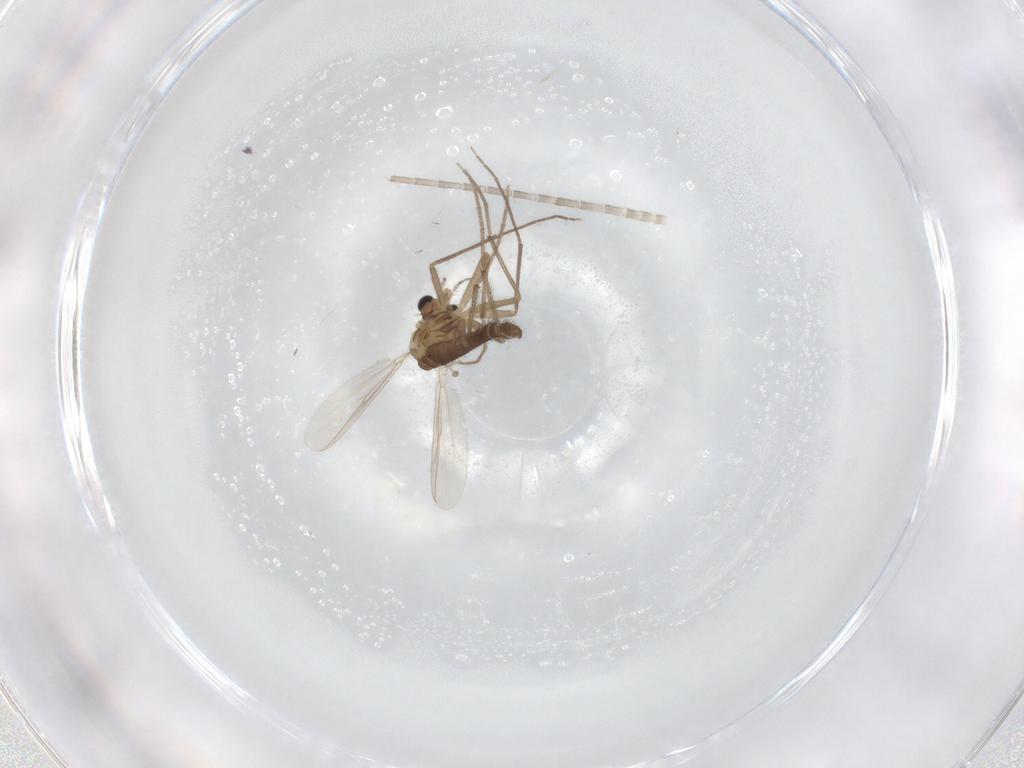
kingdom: Animalia
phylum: Arthropoda
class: Insecta
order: Diptera
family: Chironomidae
